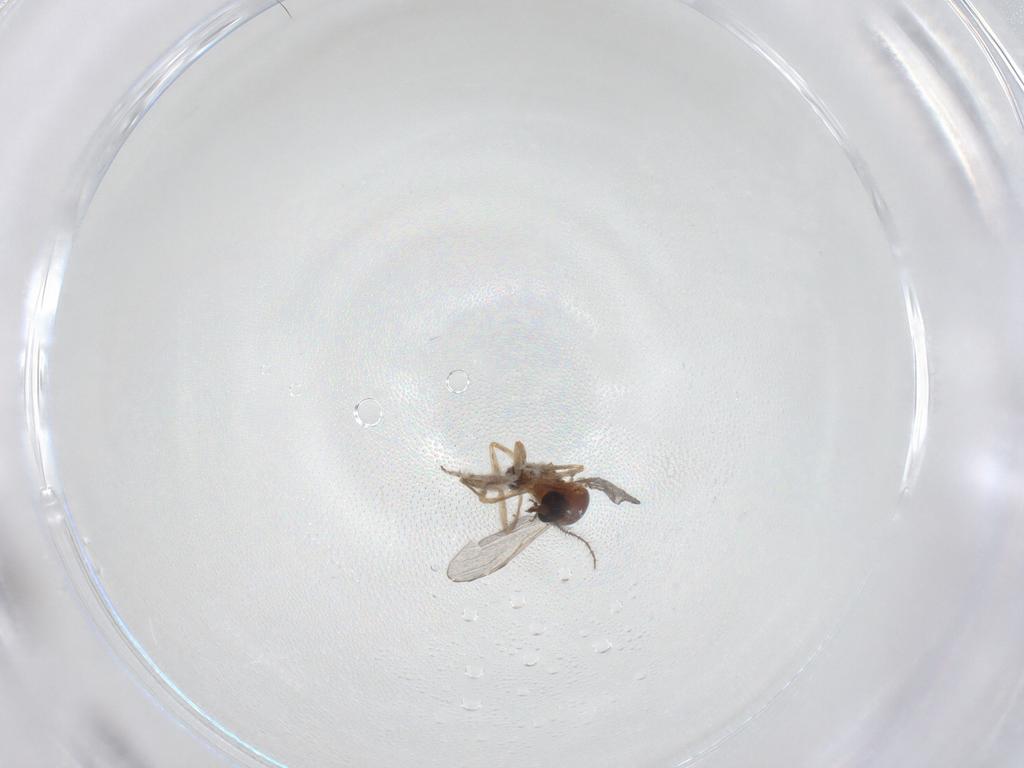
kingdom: Animalia
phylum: Arthropoda
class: Insecta
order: Diptera
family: Ceratopogonidae
